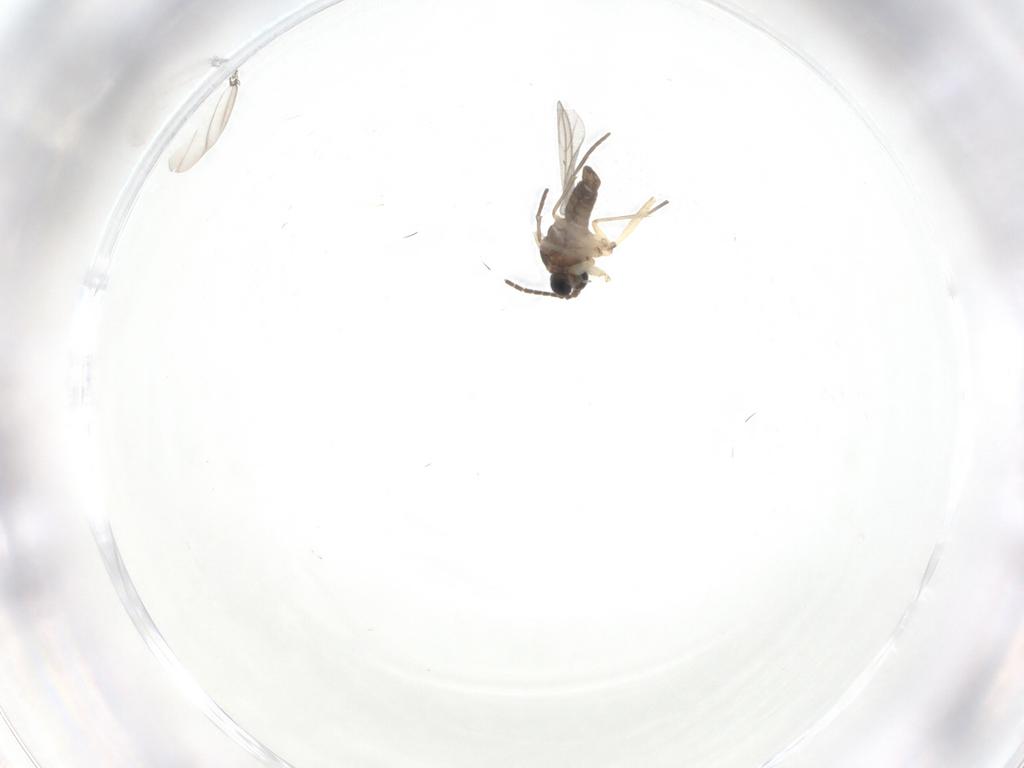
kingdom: Animalia
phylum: Arthropoda
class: Insecta
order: Diptera
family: Sciaridae
